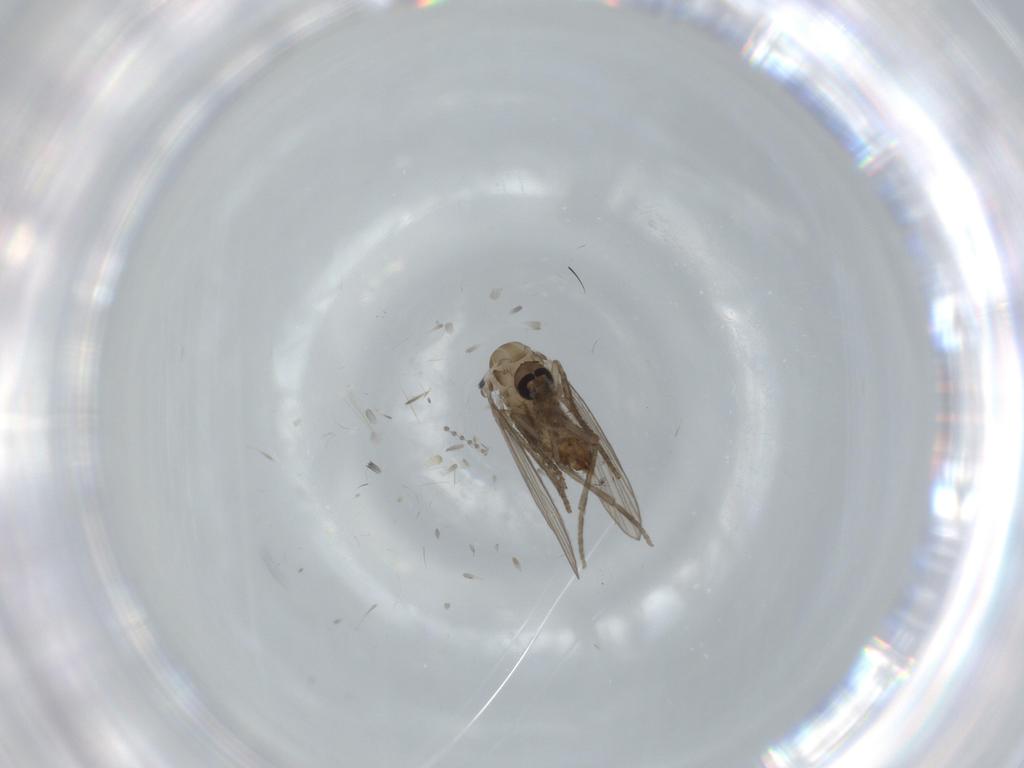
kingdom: Animalia
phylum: Arthropoda
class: Insecta
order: Diptera
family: Psychodidae
